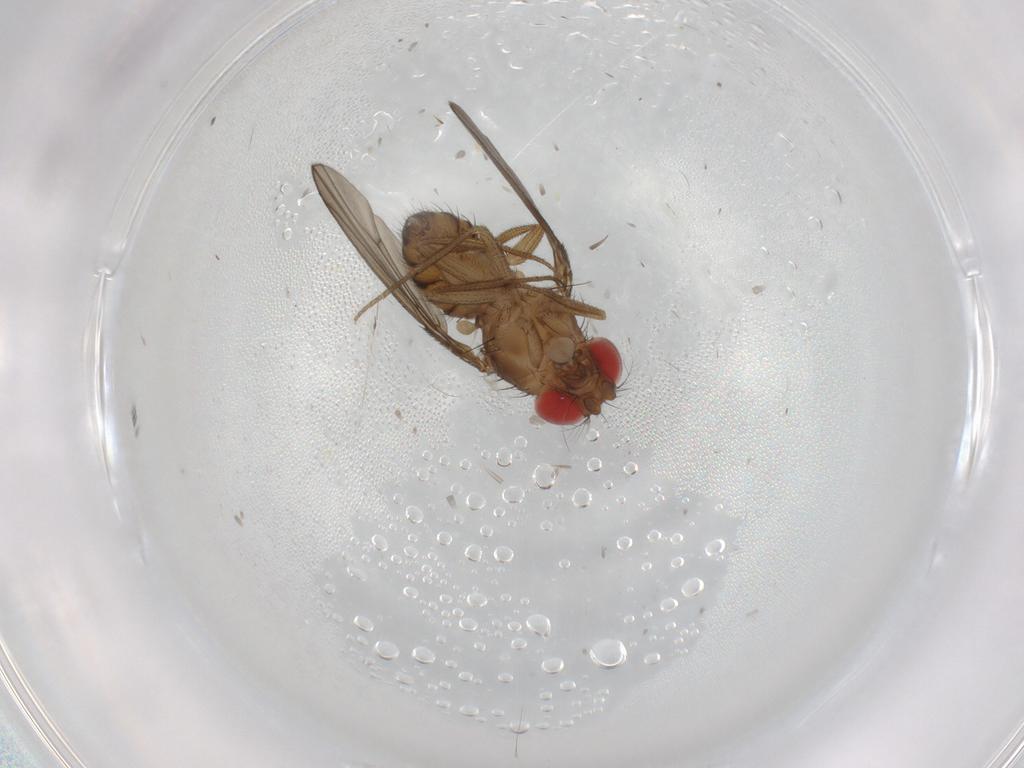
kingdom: Animalia
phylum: Arthropoda
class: Insecta
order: Diptera
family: Drosophilidae
